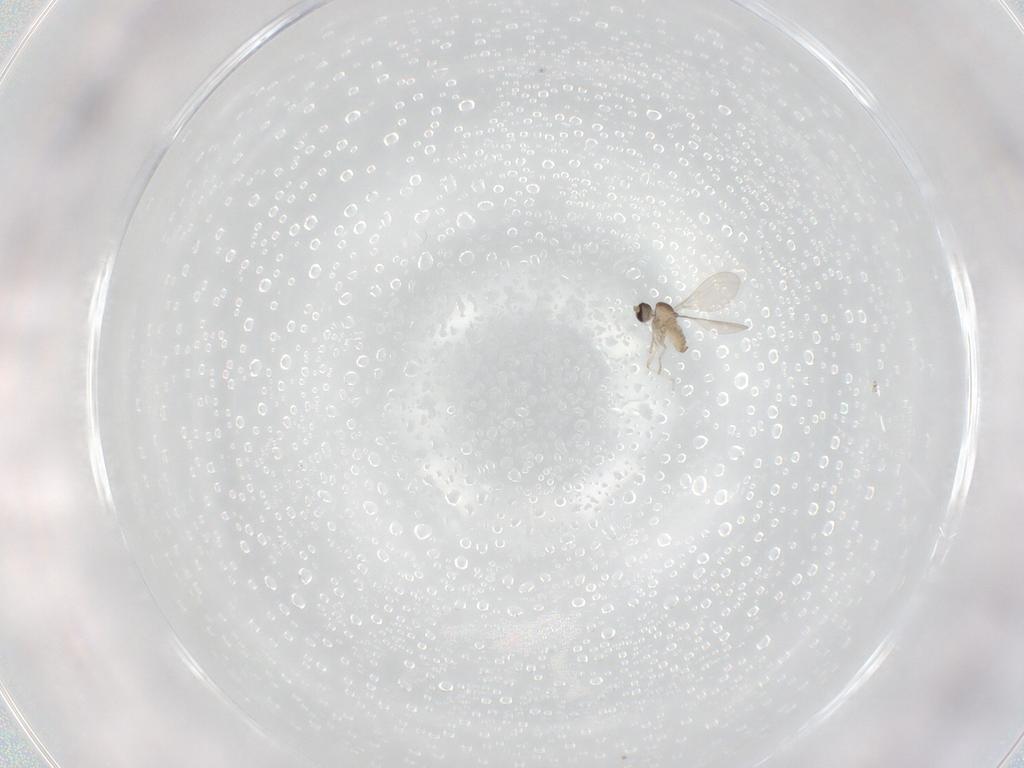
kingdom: Animalia
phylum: Arthropoda
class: Insecta
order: Diptera
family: Cecidomyiidae
